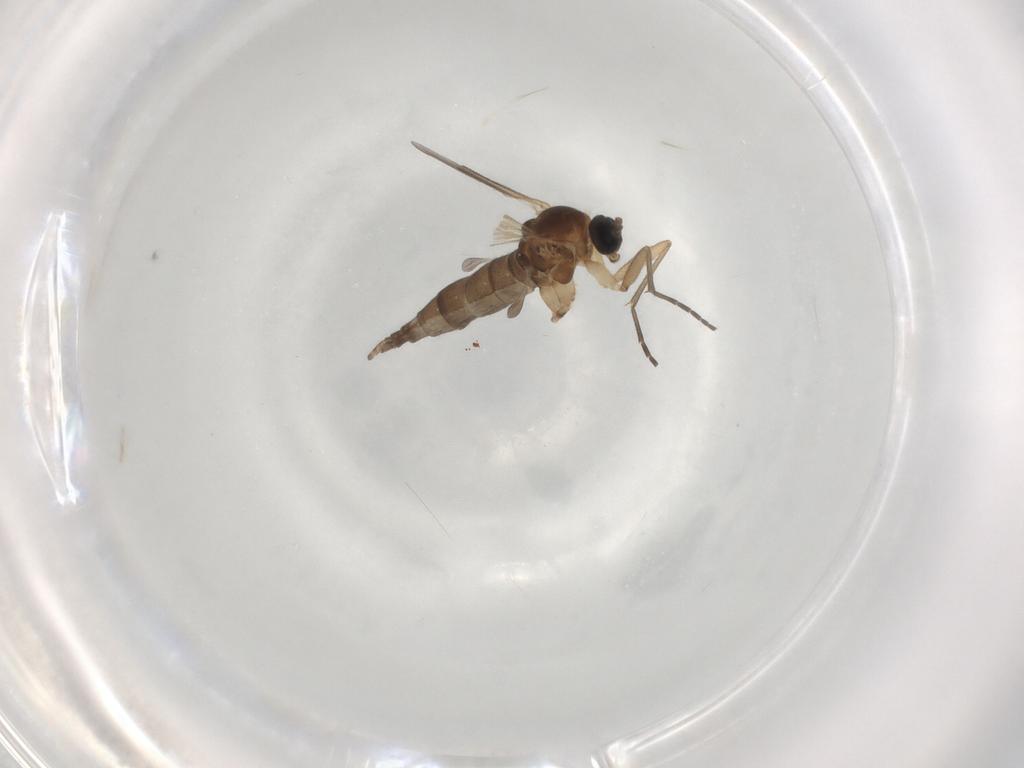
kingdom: Animalia
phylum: Arthropoda
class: Insecta
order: Diptera
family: Sciaridae
